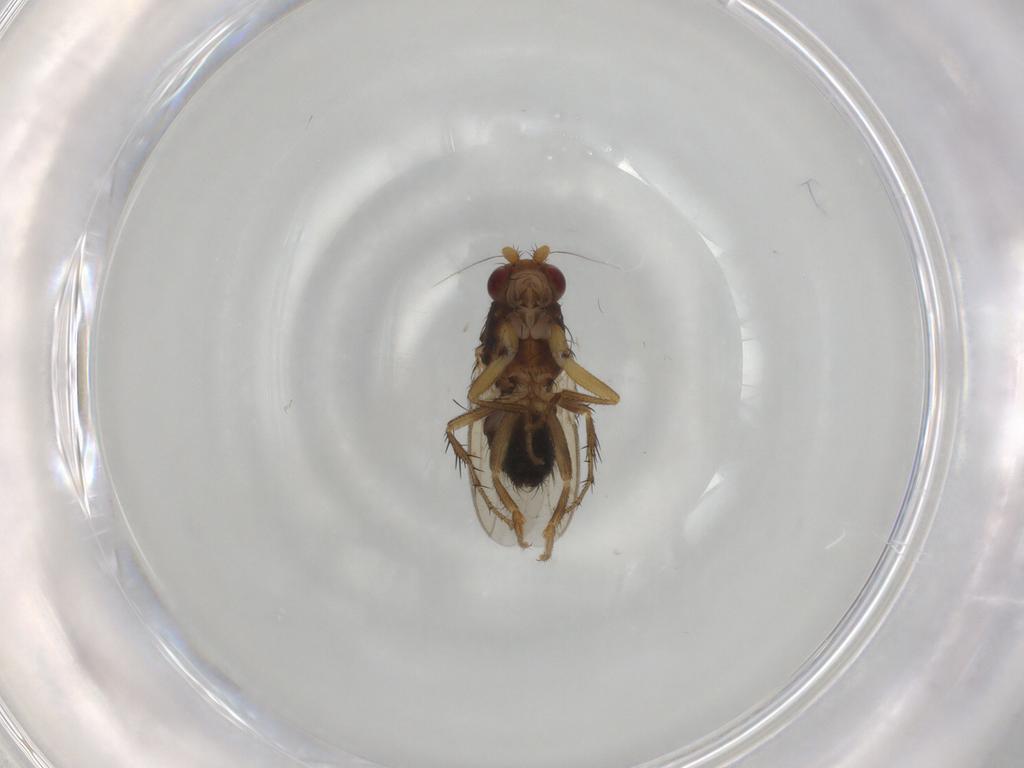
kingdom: Animalia
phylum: Arthropoda
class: Insecta
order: Diptera
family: Sphaeroceridae
